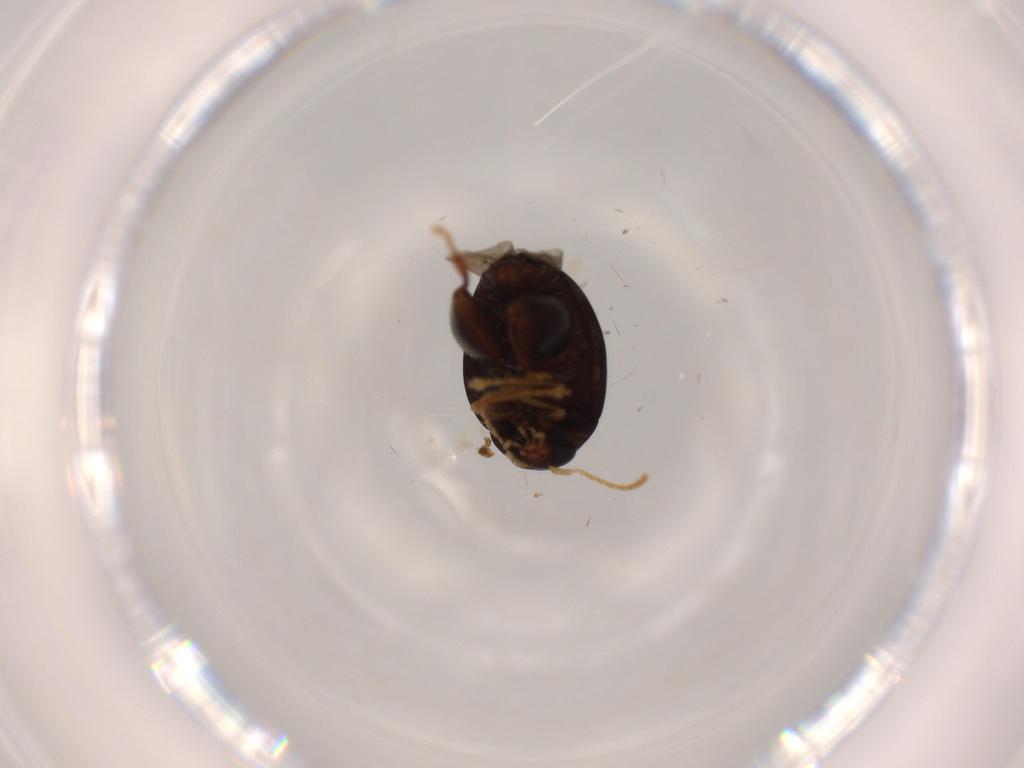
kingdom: Animalia
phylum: Arthropoda
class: Insecta
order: Coleoptera
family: Chrysomelidae
